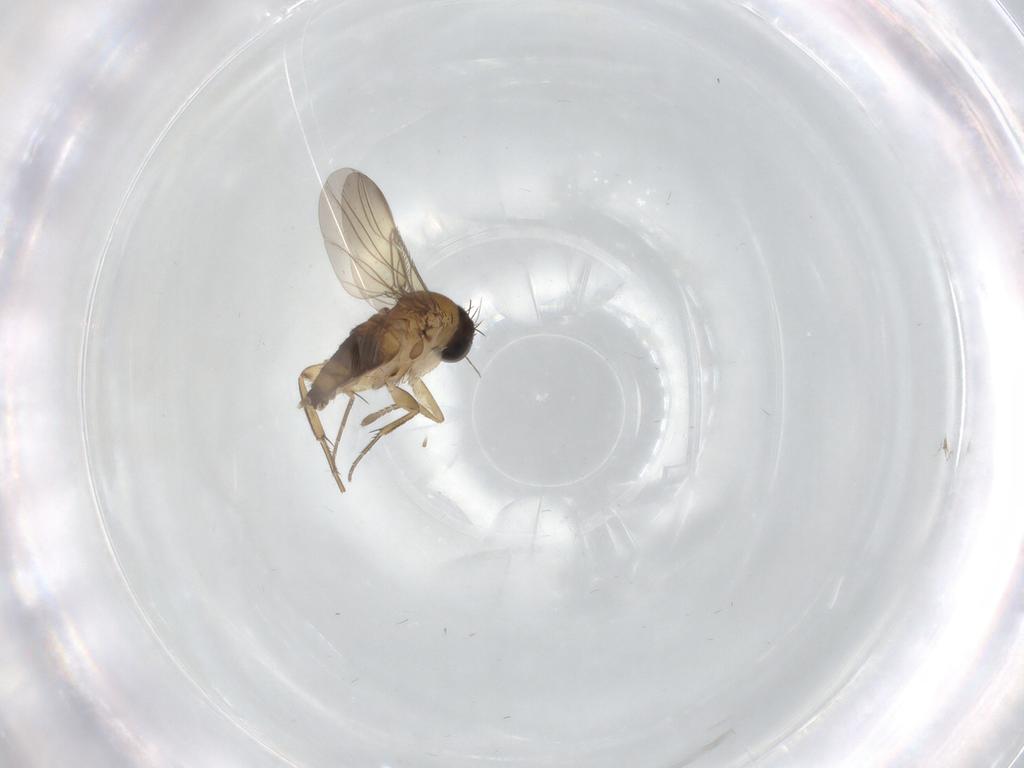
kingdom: Animalia
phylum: Arthropoda
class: Insecta
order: Diptera
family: Phoridae
